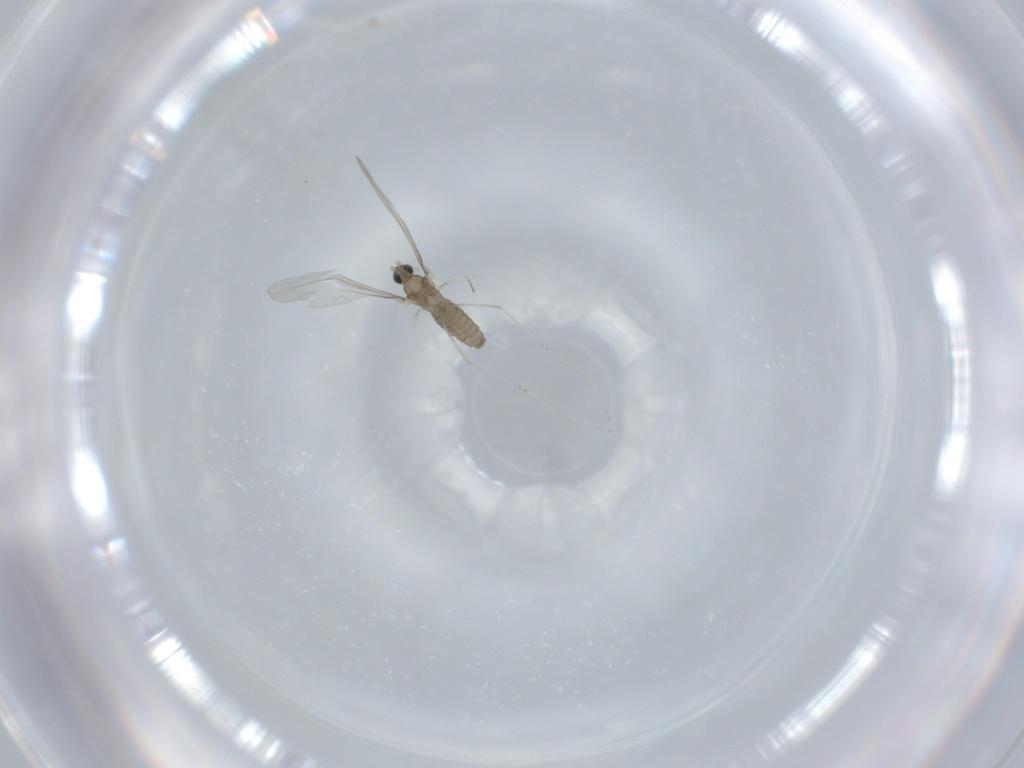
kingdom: Animalia
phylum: Arthropoda
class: Insecta
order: Diptera
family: Cecidomyiidae
